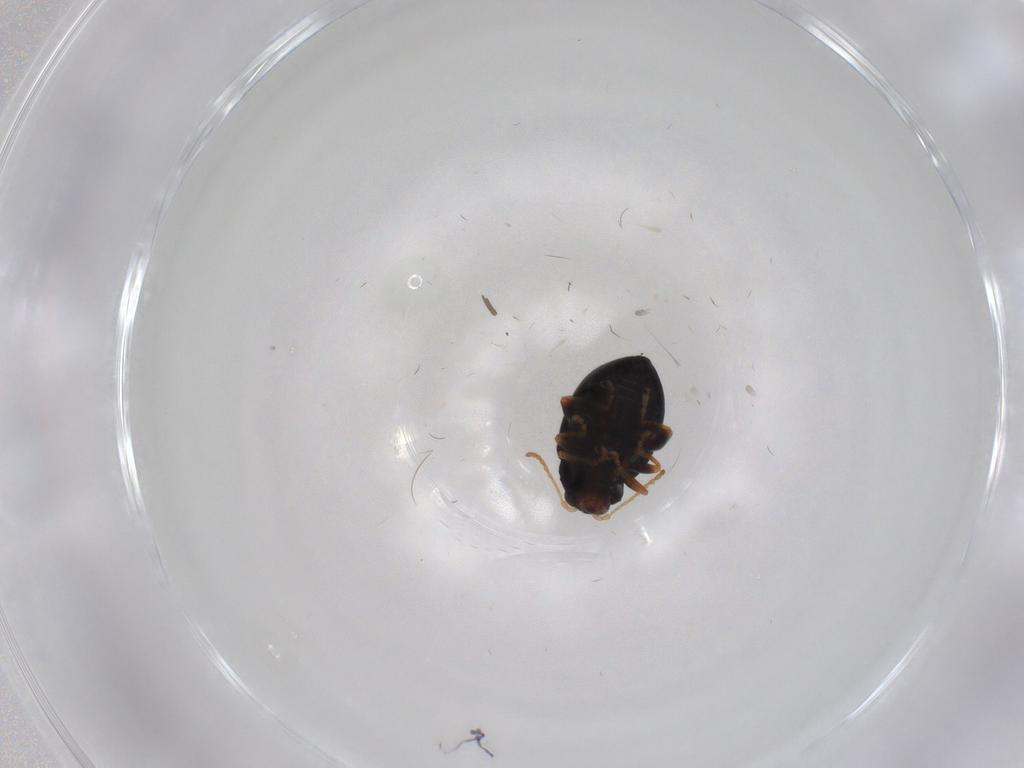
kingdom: Animalia
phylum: Arthropoda
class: Insecta
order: Coleoptera
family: Chrysomelidae
